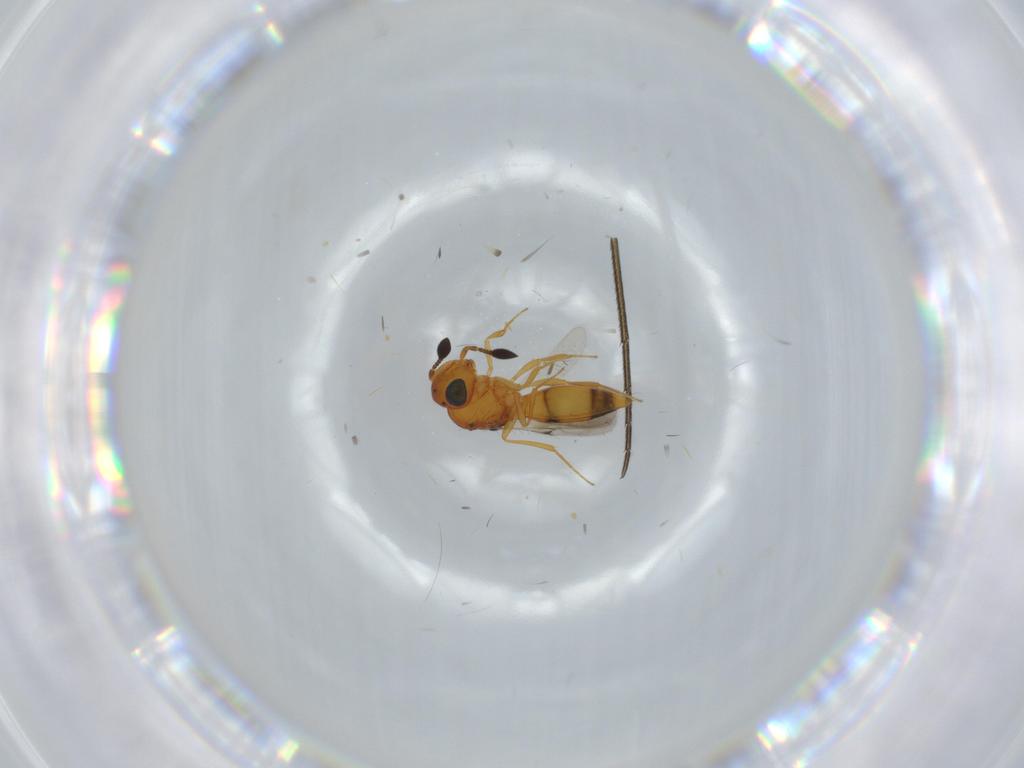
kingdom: Animalia
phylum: Arthropoda
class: Insecta
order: Hymenoptera
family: Scelionidae
